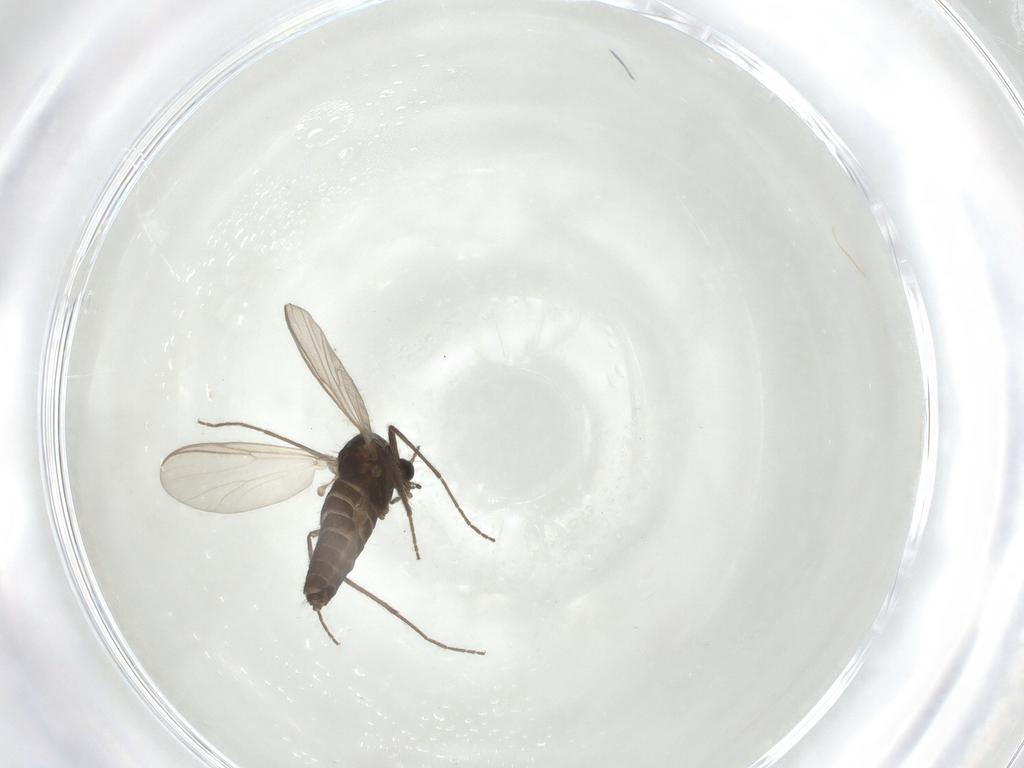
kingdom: Animalia
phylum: Arthropoda
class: Insecta
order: Diptera
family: Chironomidae
